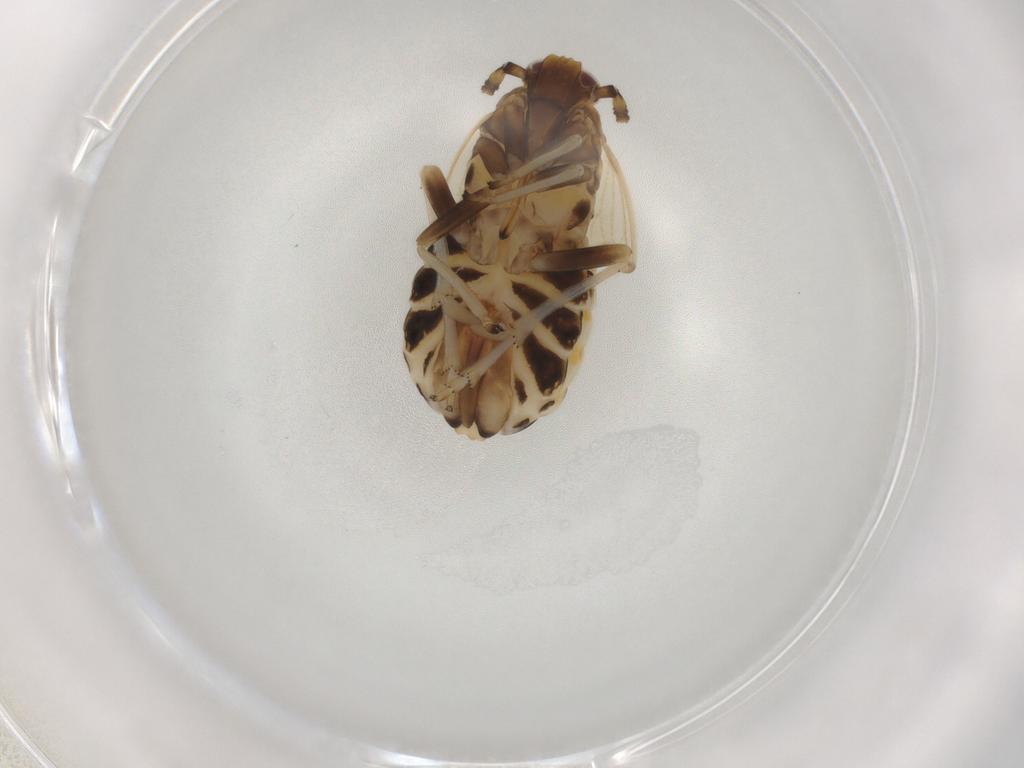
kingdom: Animalia
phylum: Arthropoda
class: Insecta
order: Hemiptera
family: Delphacidae
